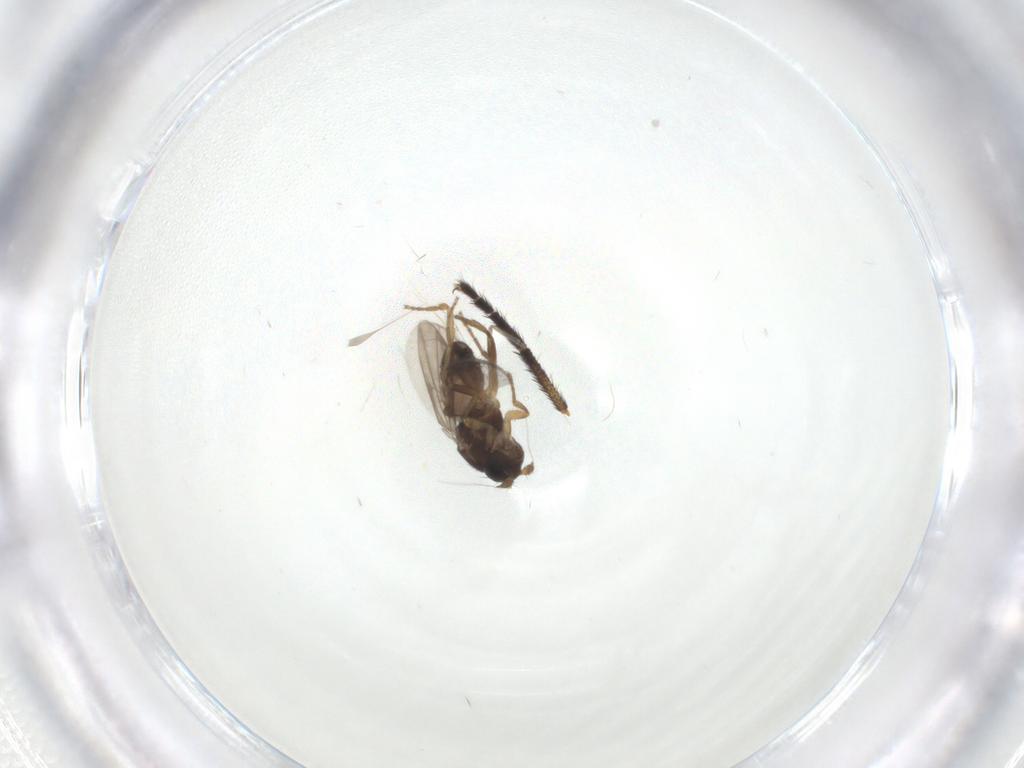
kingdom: Animalia
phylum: Arthropoda
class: Insecta
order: Diptera
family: Sphaeroceridae
